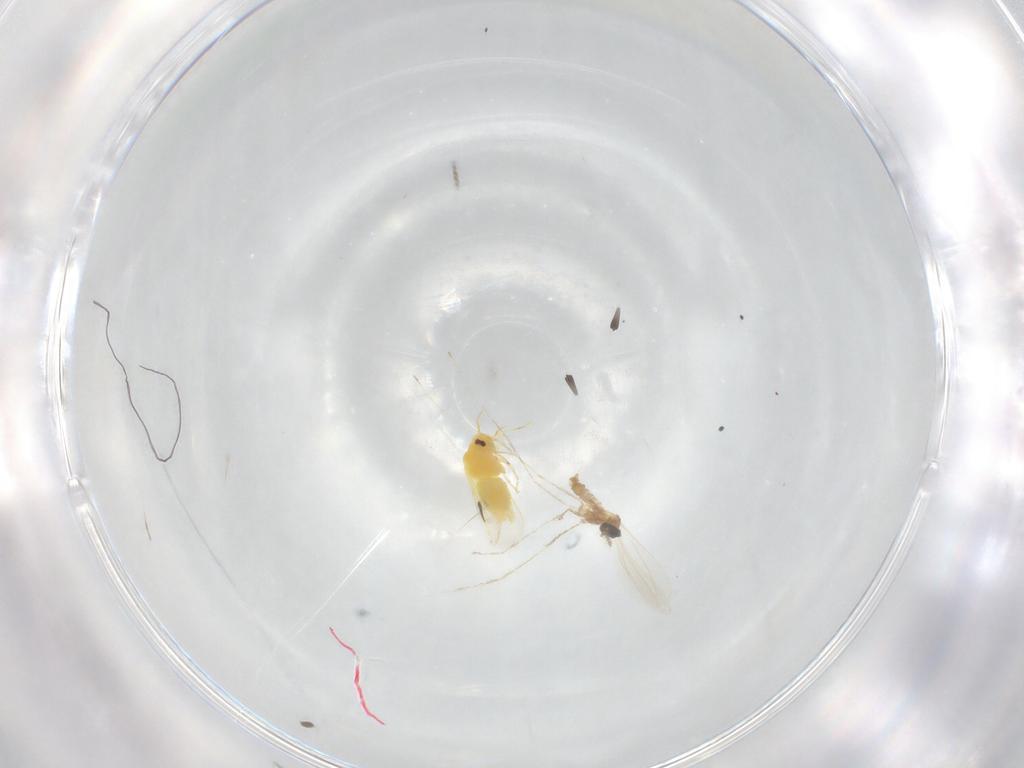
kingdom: Animalia
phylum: Arthropoda
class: Insecta
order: Diptera
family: Cecidomyiidae
